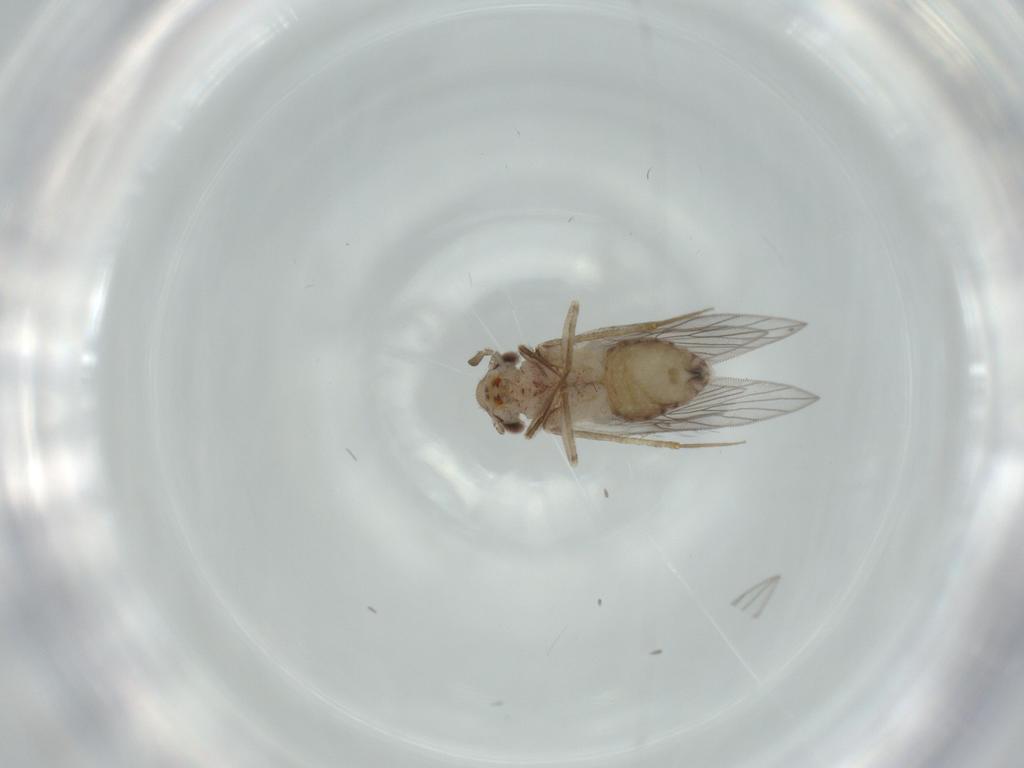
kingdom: Animalia
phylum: Arthropoda
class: Insecta
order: Psocodea
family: Lepidopsocidae
